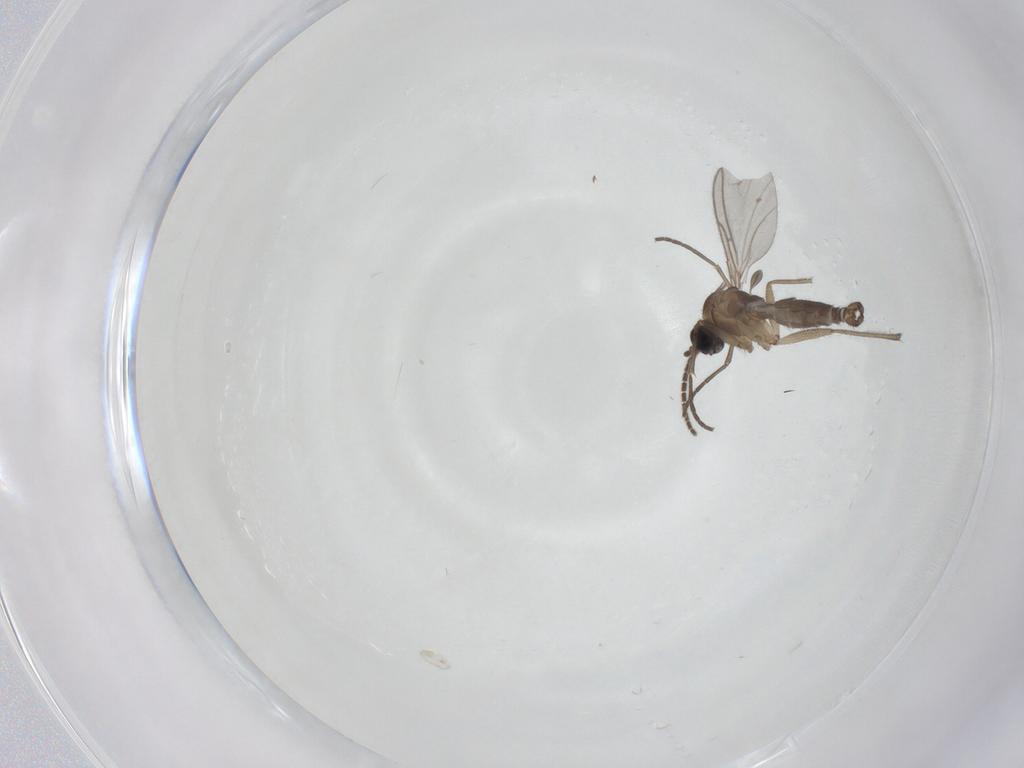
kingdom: Animalia
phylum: Arthropoda
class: Insecta
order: Diptera
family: Sciaridae
